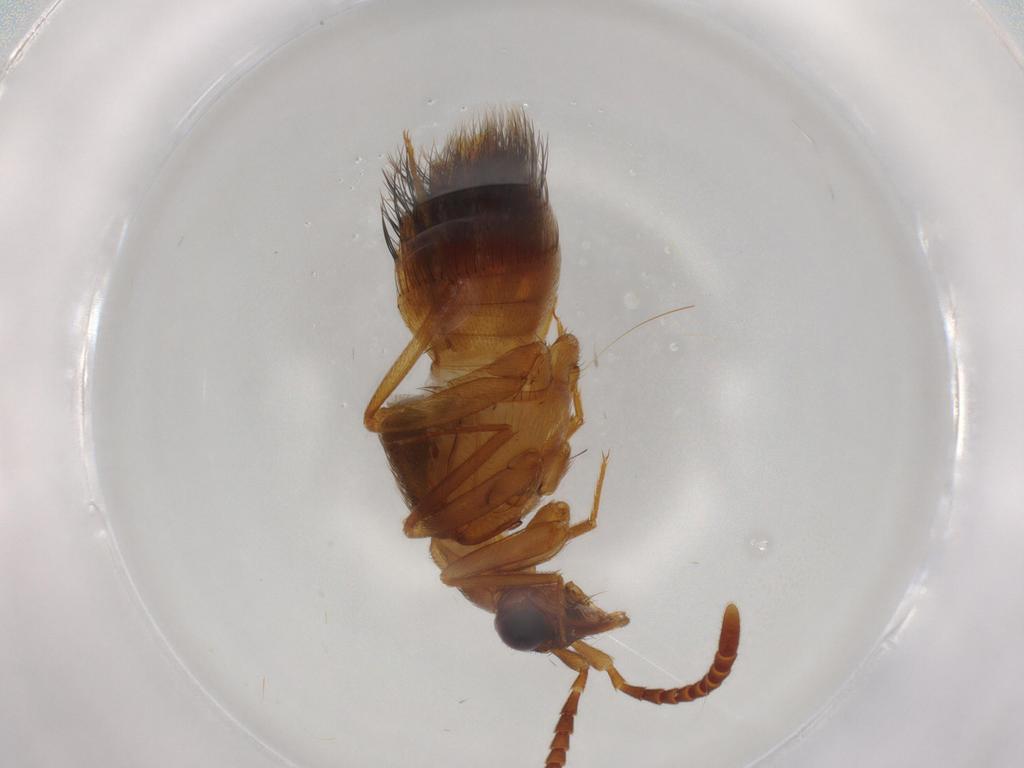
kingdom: Animalia
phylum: Arthropoda
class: Insecta
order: Coleoptera
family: Staphylinidae
